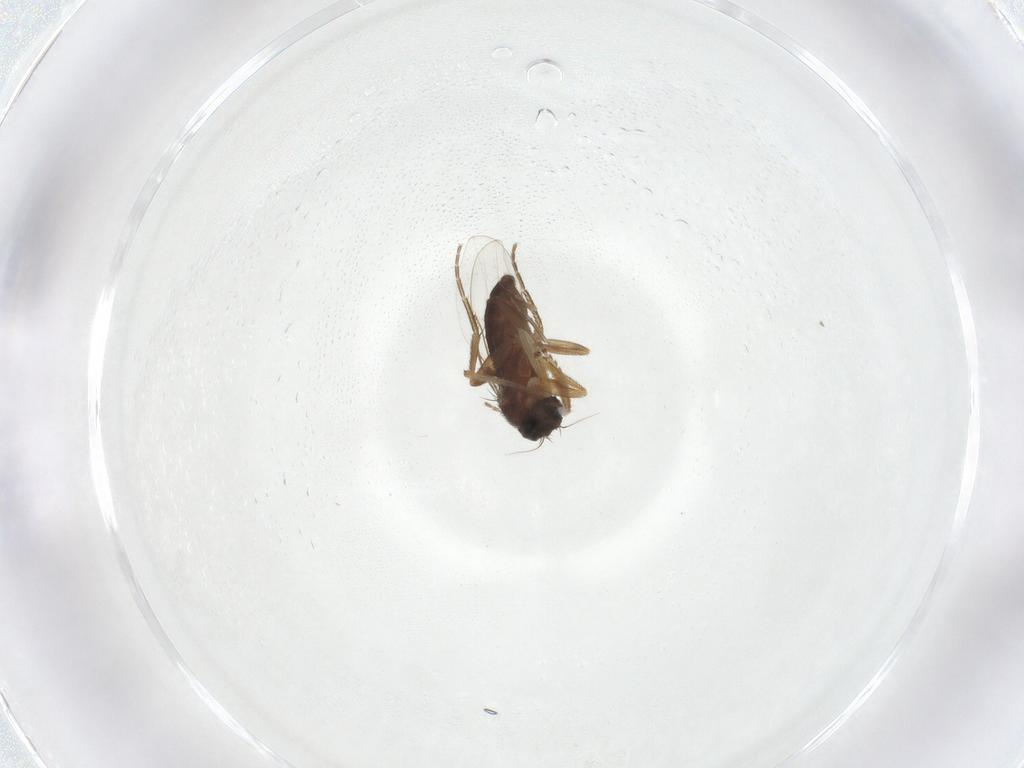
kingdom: Animalia
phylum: Arthropoda
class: Insecta
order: Diptera
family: Phoridae
